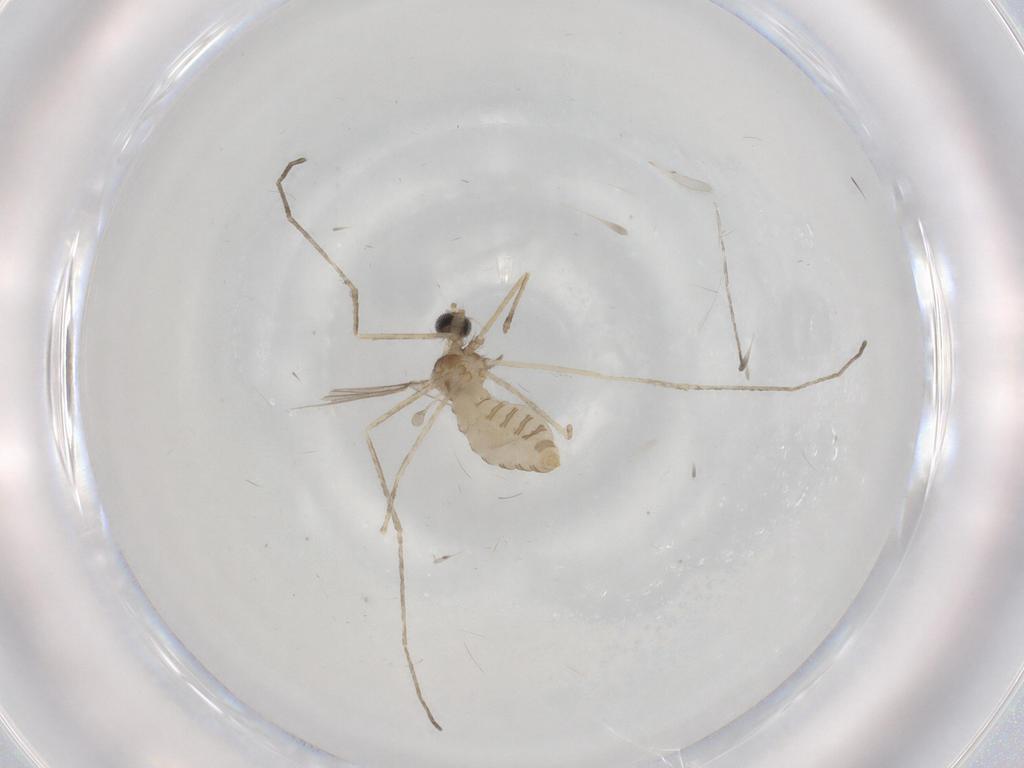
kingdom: Animalia
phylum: Arthropoda
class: Insecta
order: Diptera
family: Cecidomyiidae
